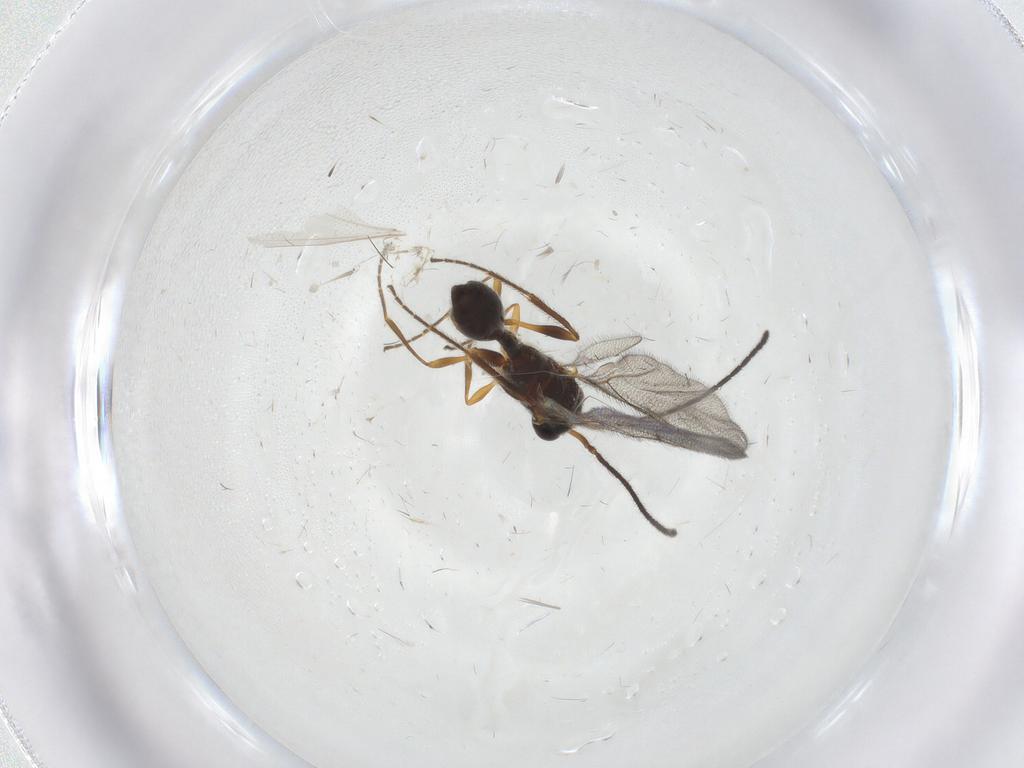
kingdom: Animalia
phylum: Arthropoda
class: Insecta
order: Hymenoptera
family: Diapriidae
